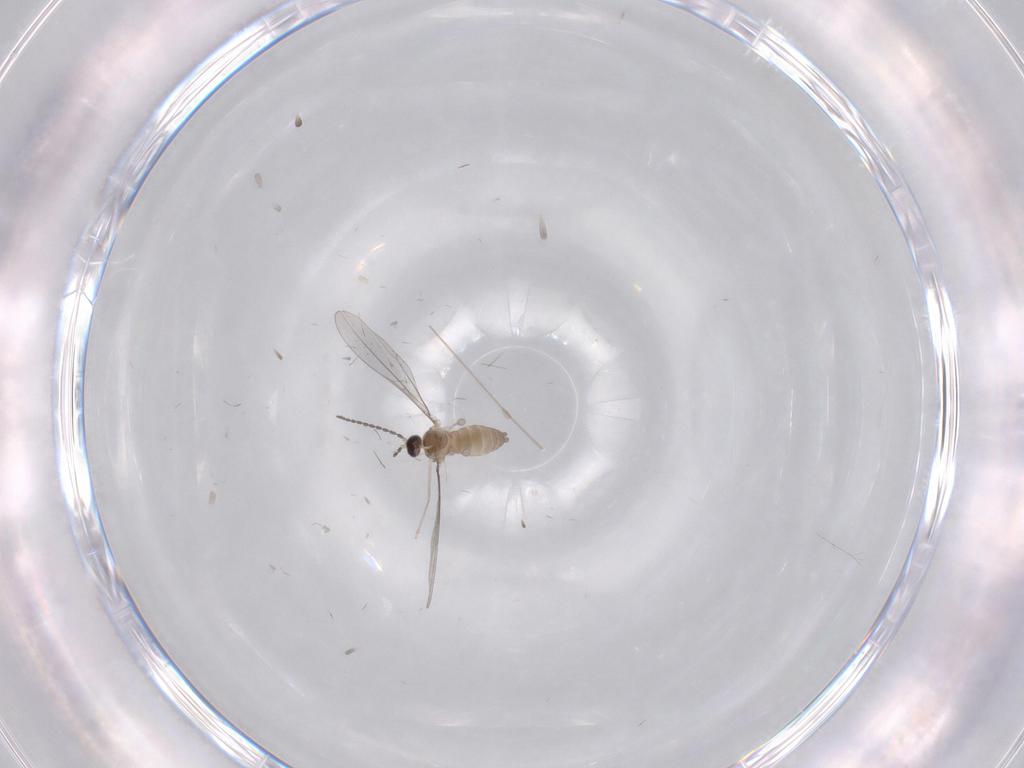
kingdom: Animalia
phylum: Arthropoda
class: Insecta
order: Diptera
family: Cecidomyiidae
